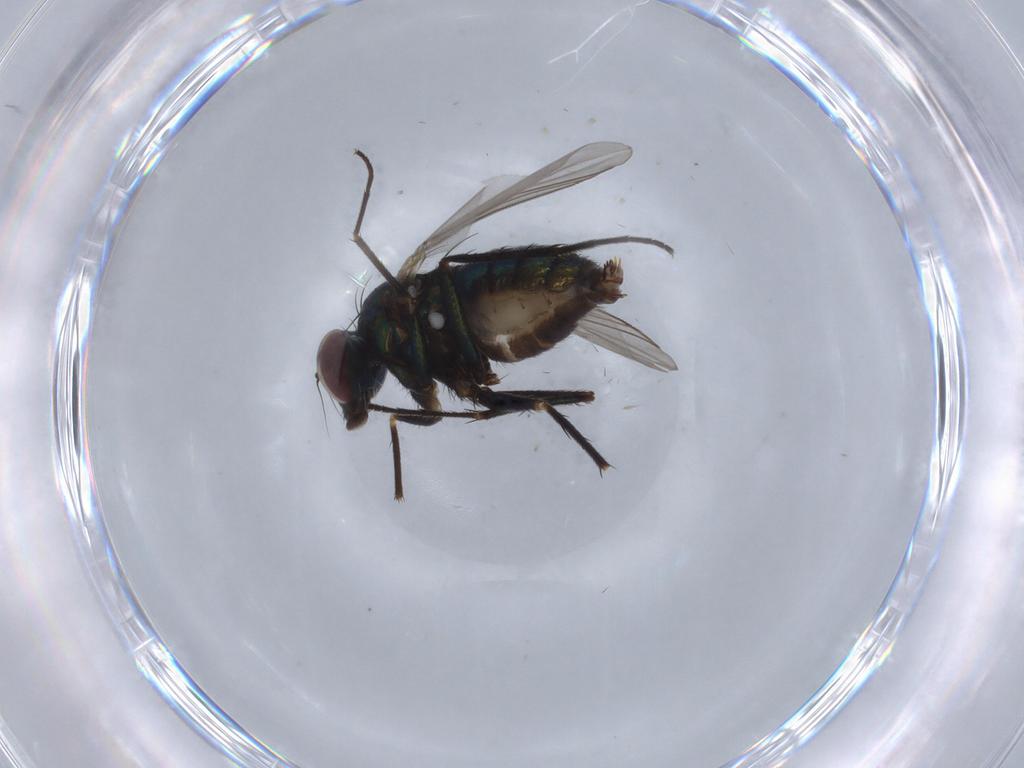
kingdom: Animalia
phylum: Arthropoda
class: Insecta
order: Diptera
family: Dolichopodidae
